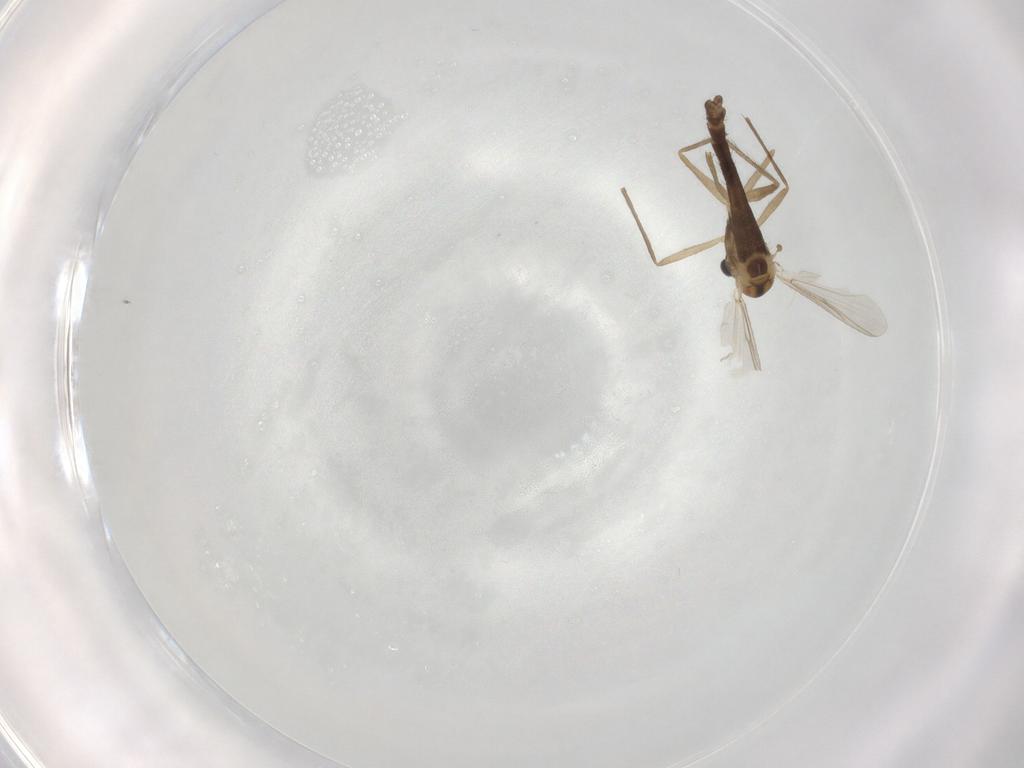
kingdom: Animalia
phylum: Arthropoda
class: Insecta
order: Diptera
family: Chironomidae
